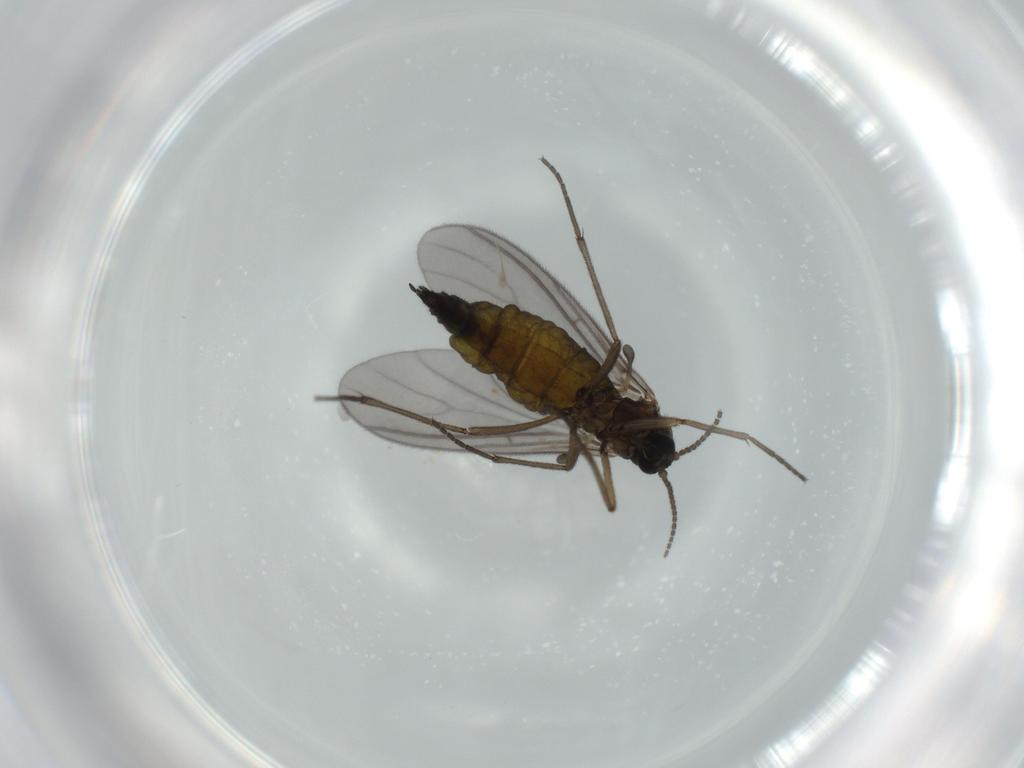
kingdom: Animalia
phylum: Arthropoda
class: Insecta
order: Diptera
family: Sciaridae
